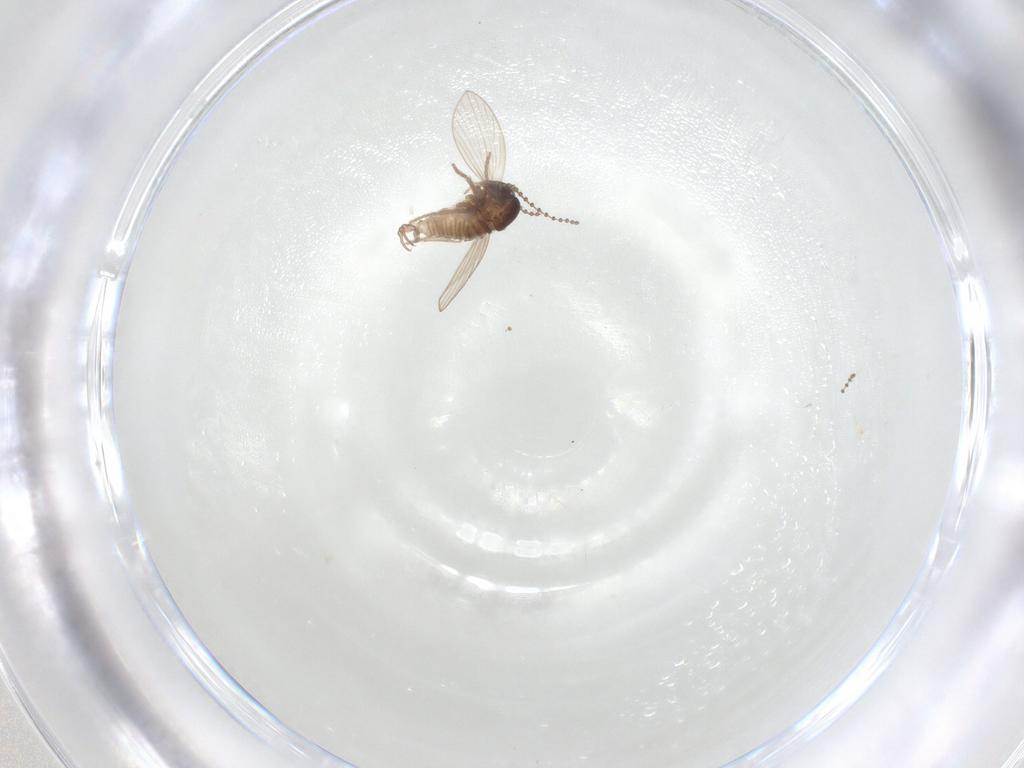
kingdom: Animalia
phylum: Arthropoda
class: Insecta
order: Diptera
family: Psychodidae
